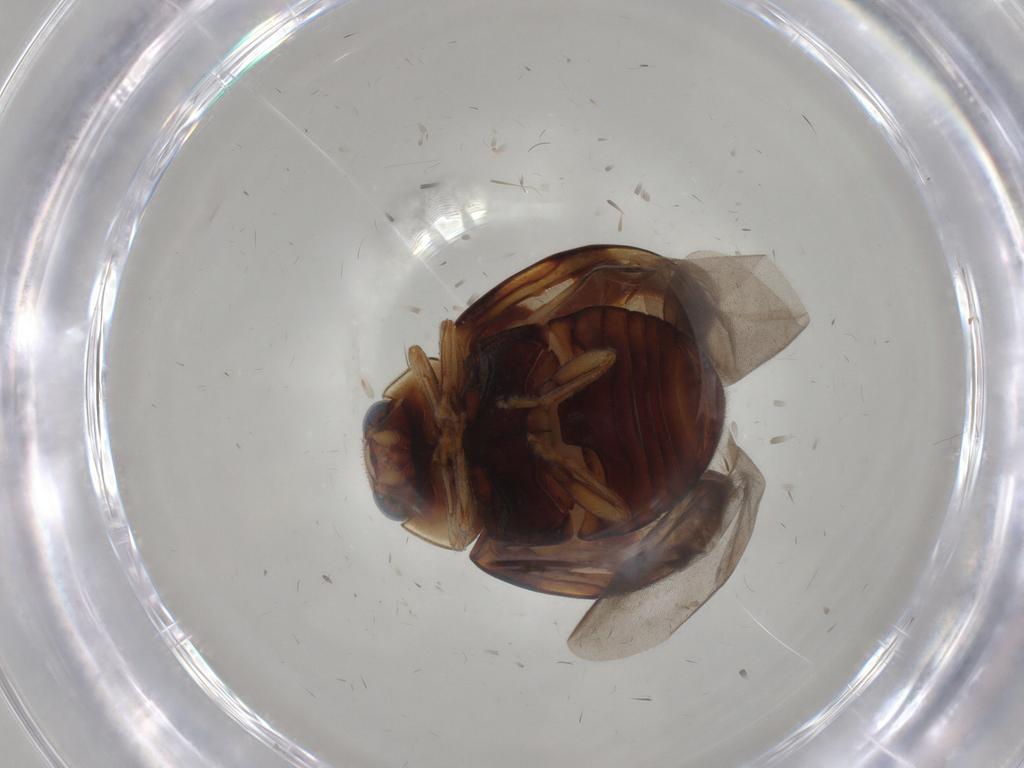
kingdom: Animalia
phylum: Arthropoda
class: Insecta
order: Coleoptera
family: Coccinellidae
